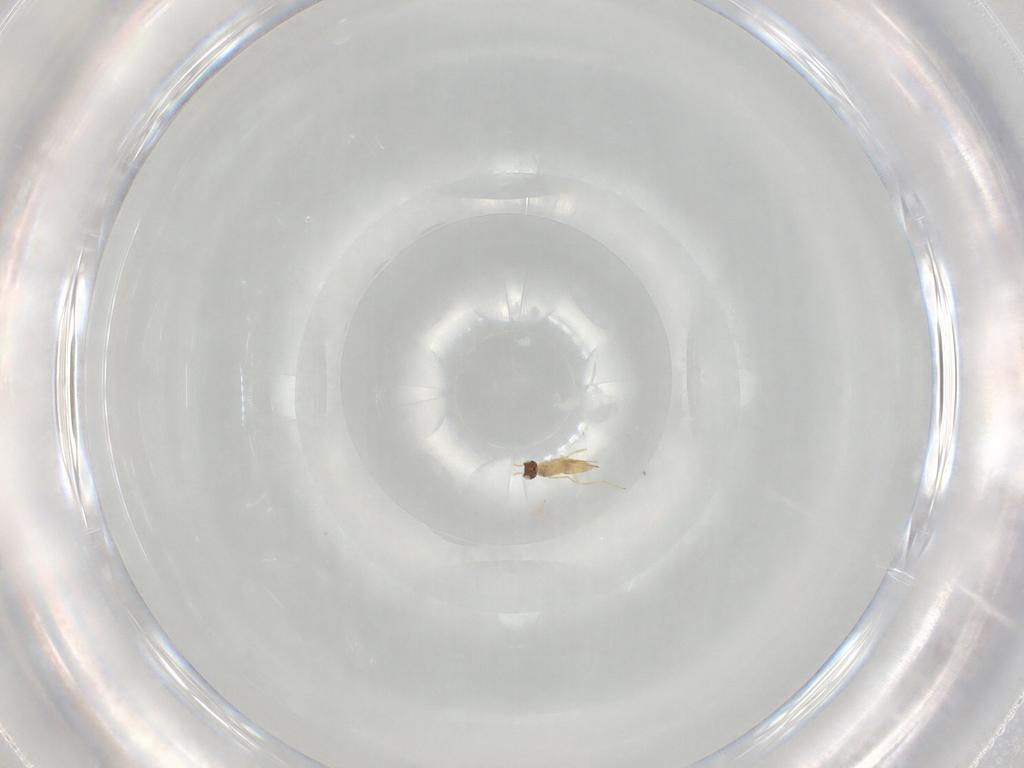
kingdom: Animalia
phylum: Arthropoda
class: Insecta
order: Hymenoptera
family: Mymaridae
